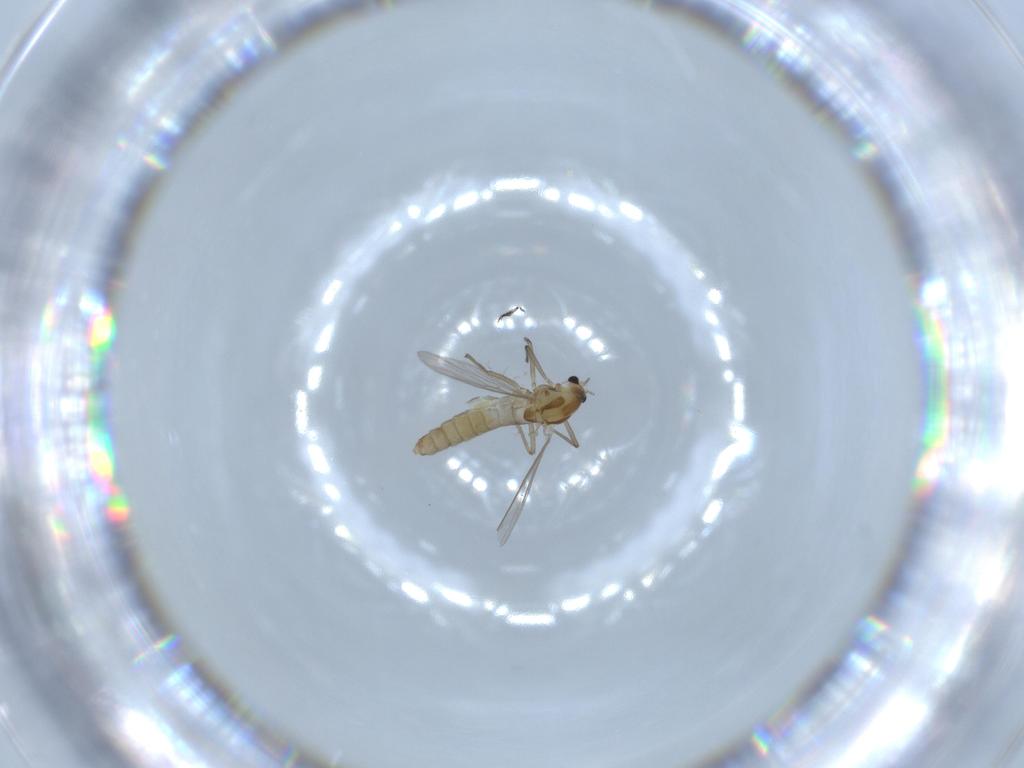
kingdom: Animalia
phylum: Arthropoda
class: Insecta
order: Diptera
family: Chironomidae
